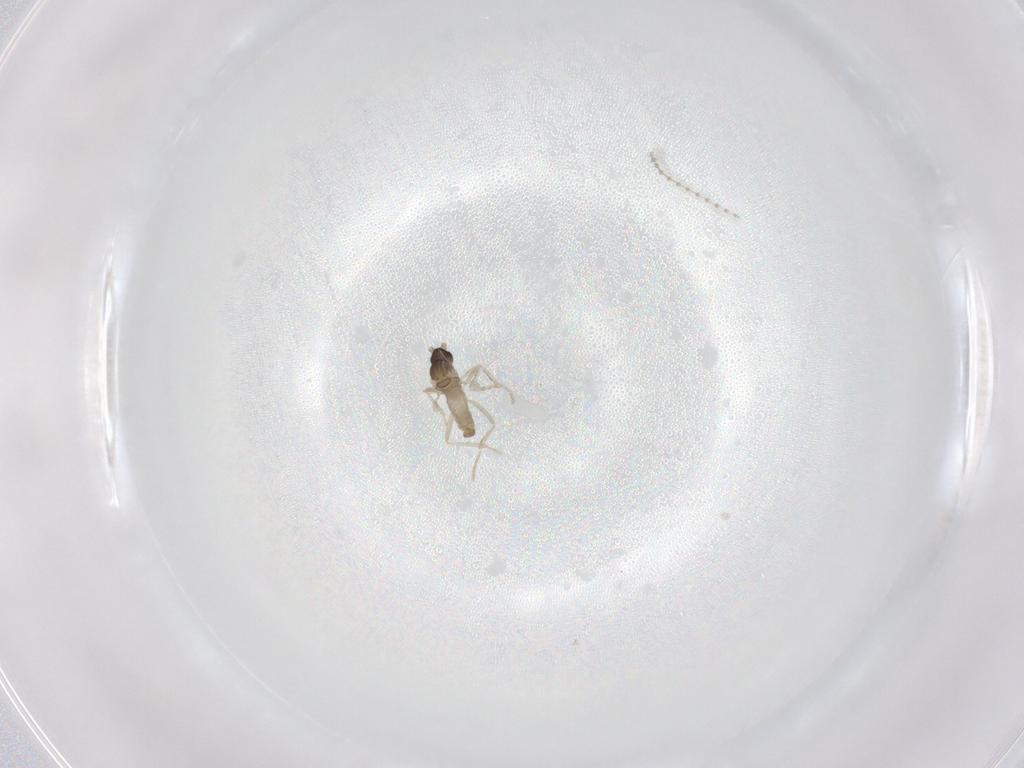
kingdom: Animalia
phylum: Arthropoda
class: Insecta
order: Diptera
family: Cecidomyiidae
